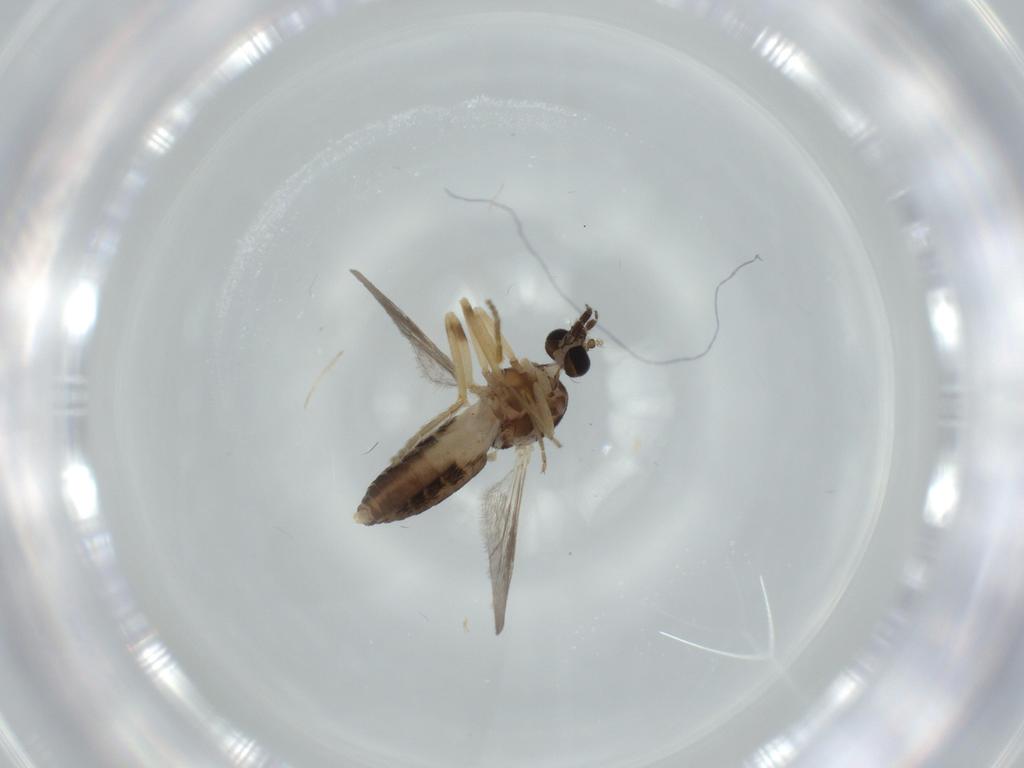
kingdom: Animalia
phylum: Arthropoda
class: Insecta
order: Diptera
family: Ceratopogonidae
